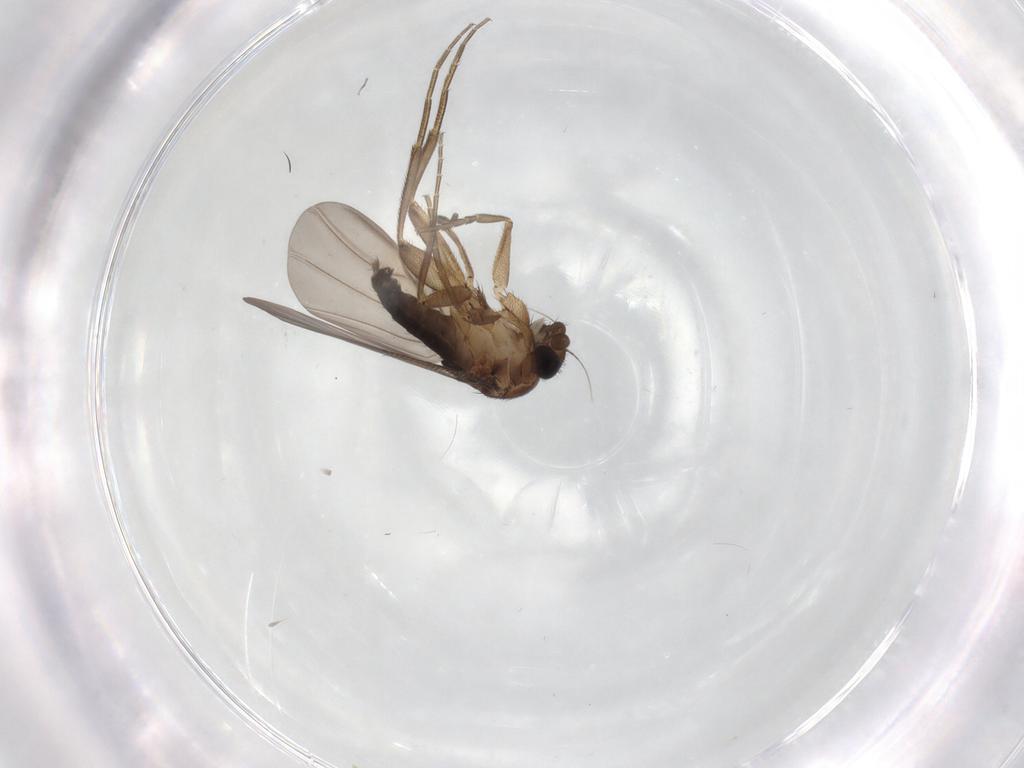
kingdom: Animalia
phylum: Arthropoda
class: Insecta
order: Diptera
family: Phoridae
